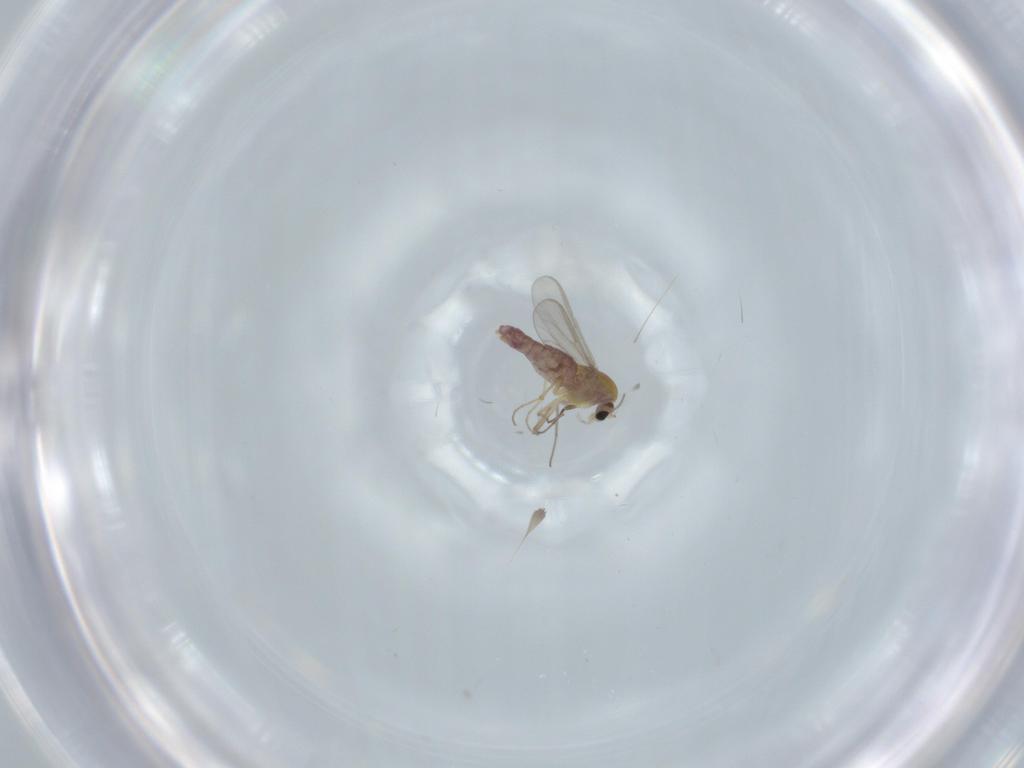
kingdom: Animalia
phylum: Arthropoda
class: Insecta
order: Diptera
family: Chironomidae
